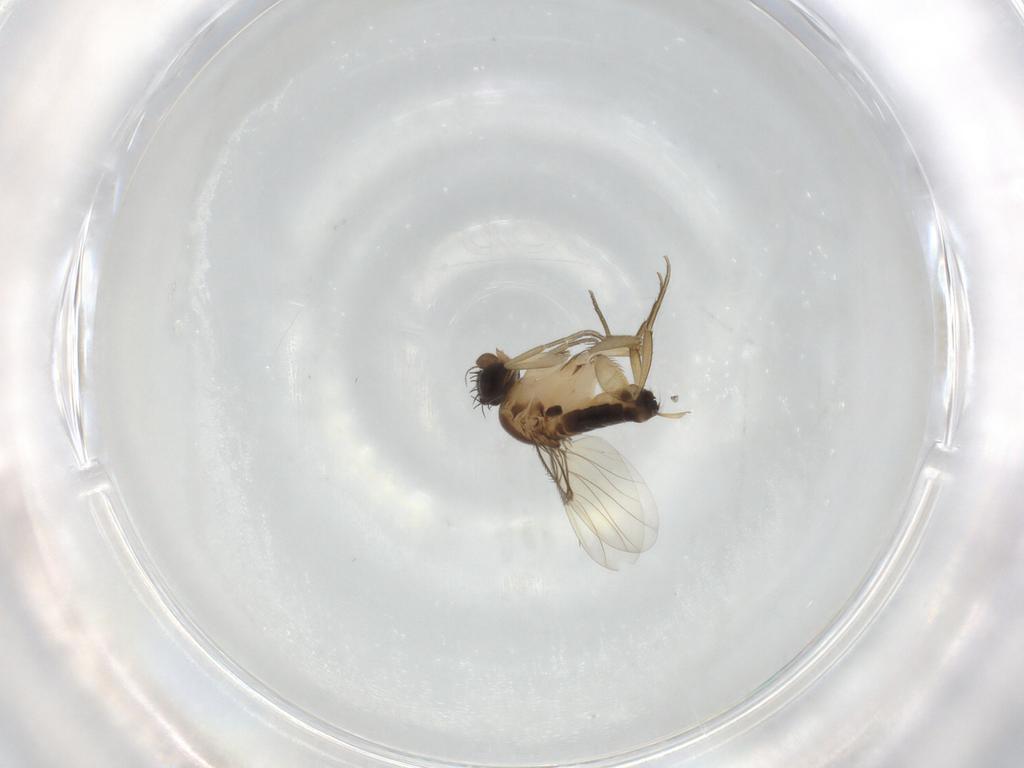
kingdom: Animalia
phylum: Arthropoda
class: Insecta
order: Diptera
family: Phoridae
